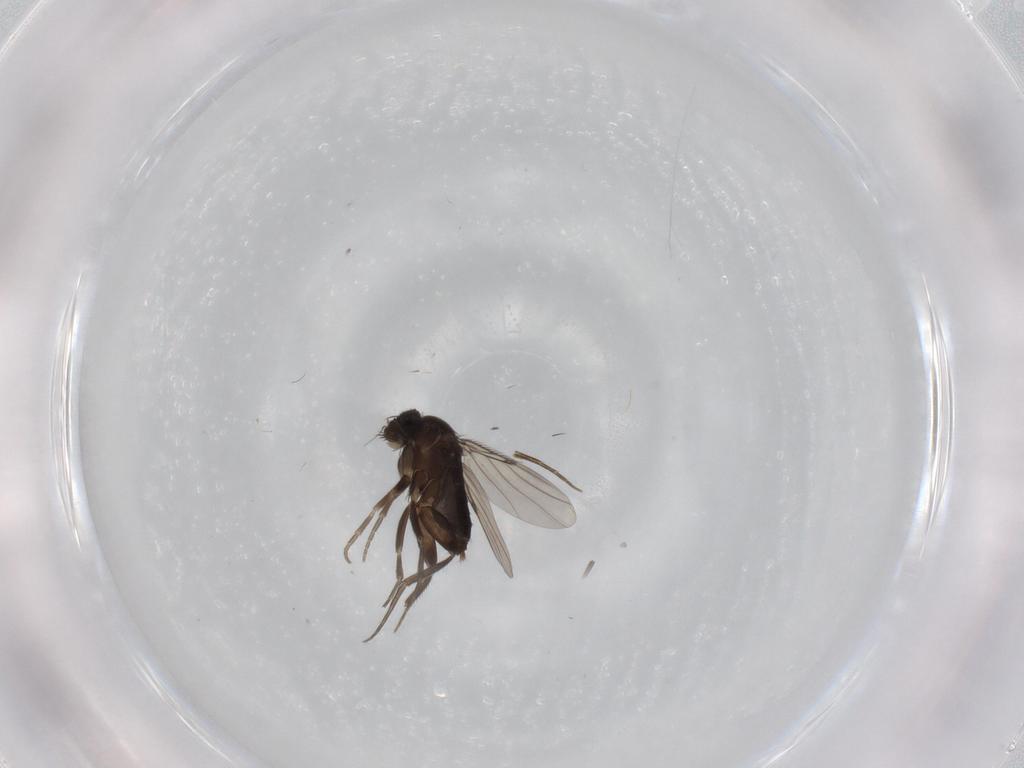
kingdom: Animalia
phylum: Arthropoda
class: Insecta
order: Diptera
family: Phoridae
